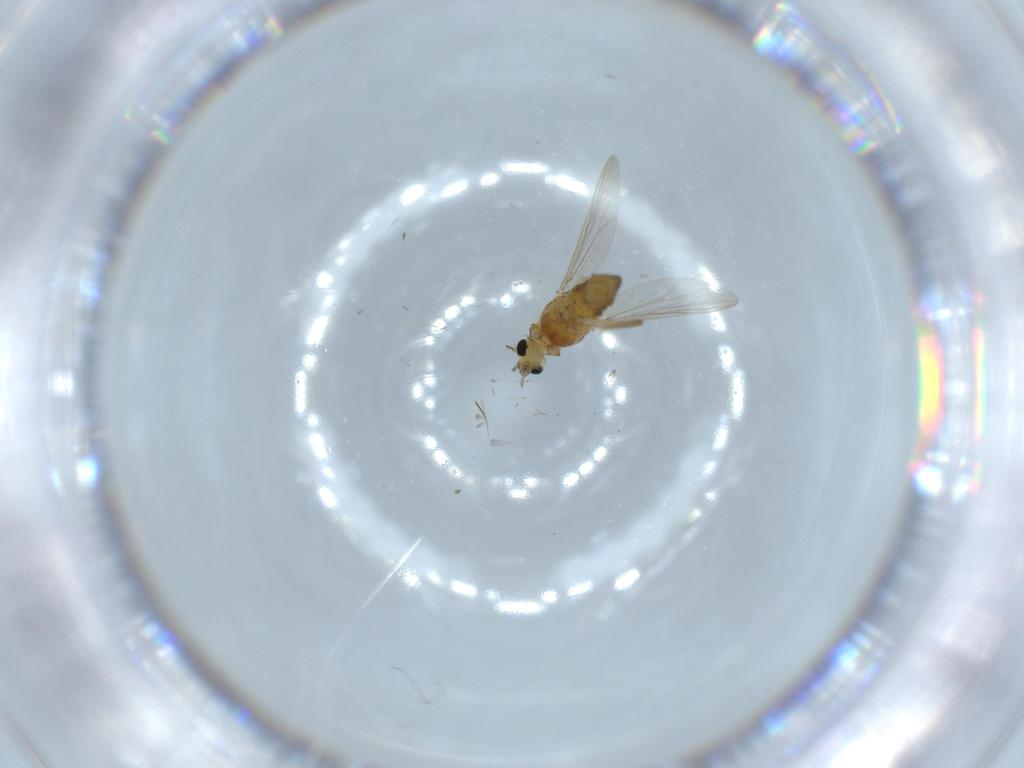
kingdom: Animalia
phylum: Arthropoda
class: Insecta
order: Diptera
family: Chironomidae
